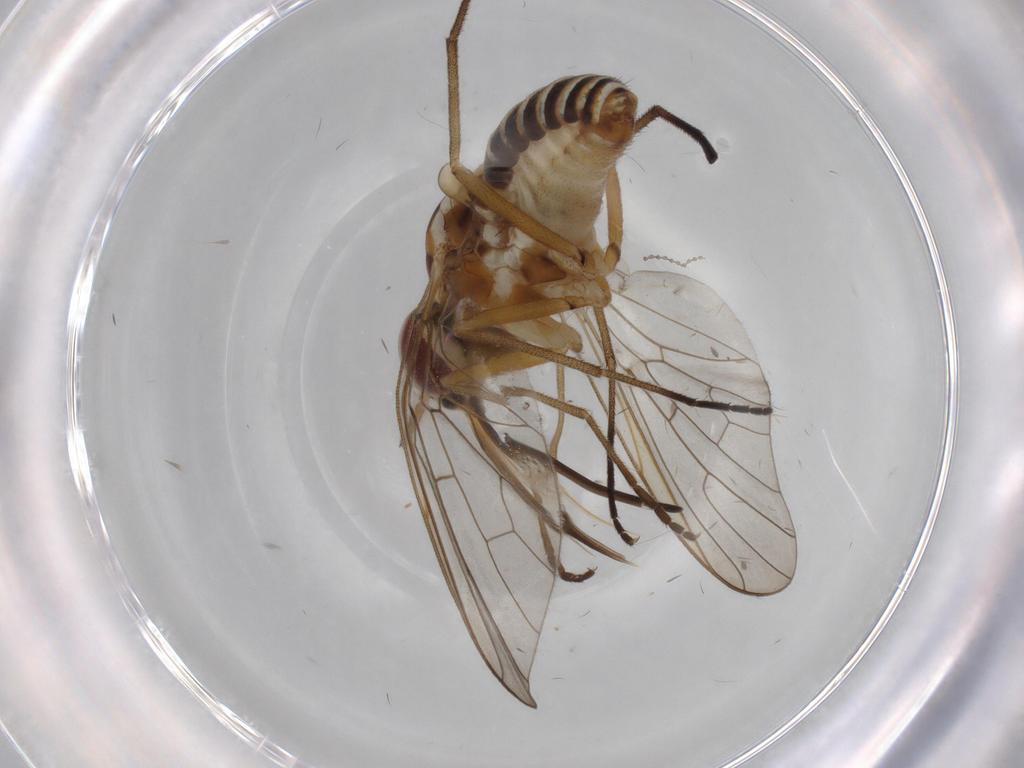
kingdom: Animalia
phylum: Arthropoda
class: Insecta
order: Diptera
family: Bombyliidae
